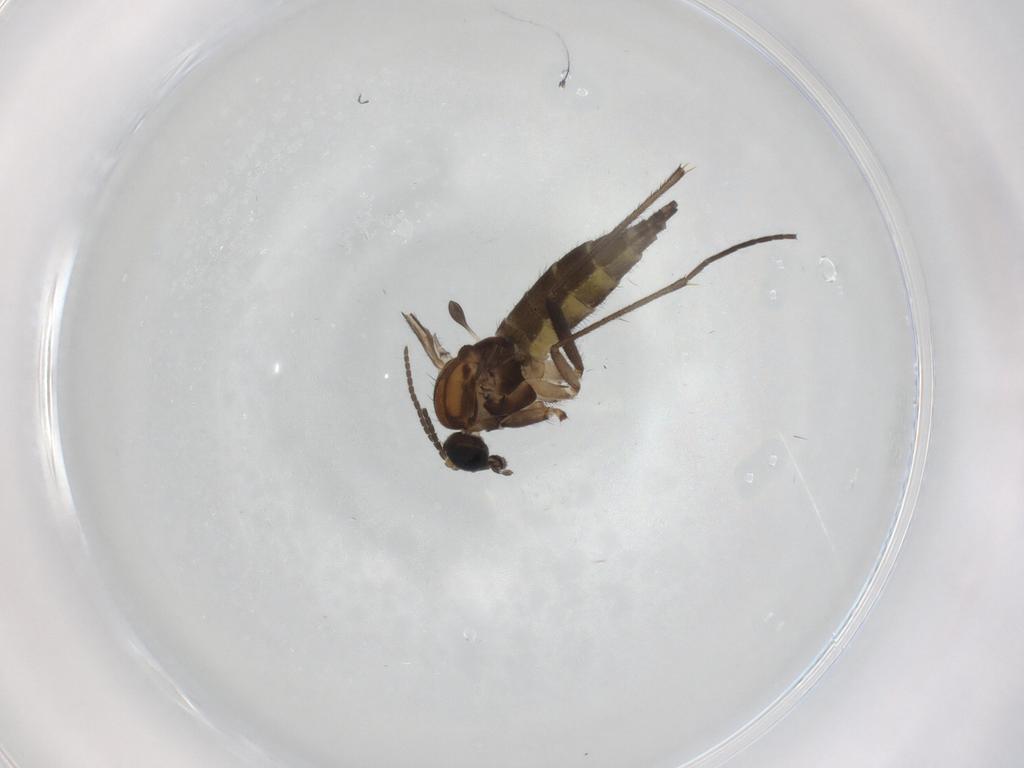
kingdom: Animalia
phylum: Arthropoda
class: Insecta
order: Diptera
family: Sciaridae
